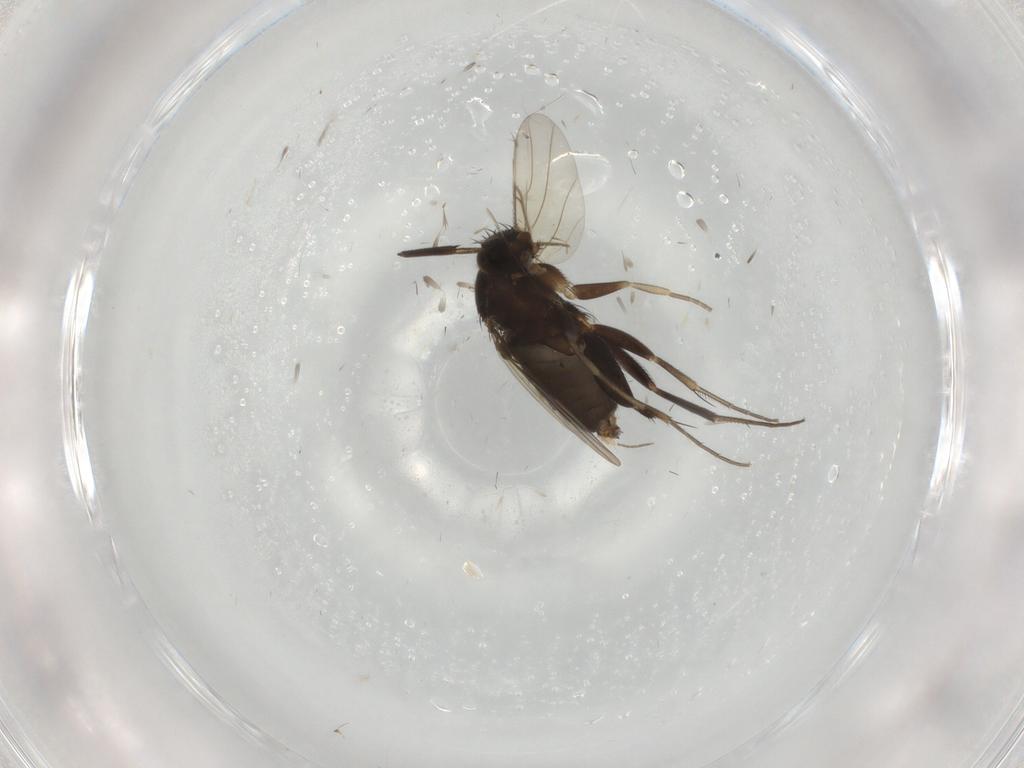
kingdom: Animalia
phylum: Arthropoda
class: Insecta
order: Diptera
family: Phoridae
